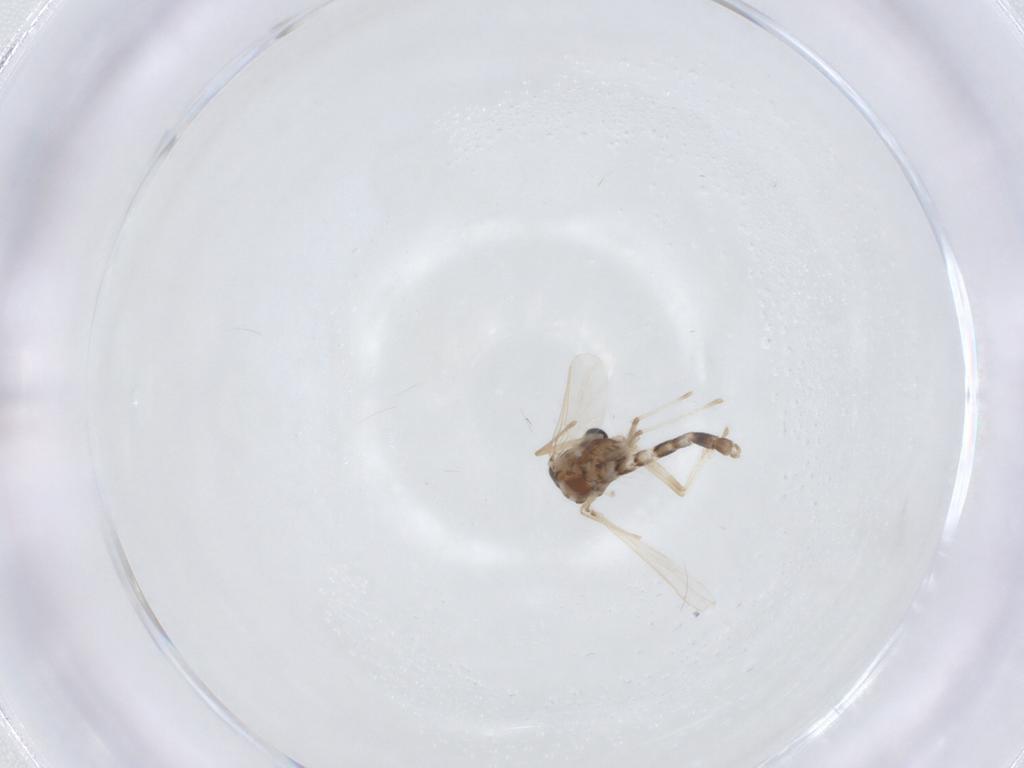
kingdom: Animalia
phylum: Arthropoda
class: Insecta
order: Diptera
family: Chironomidae
